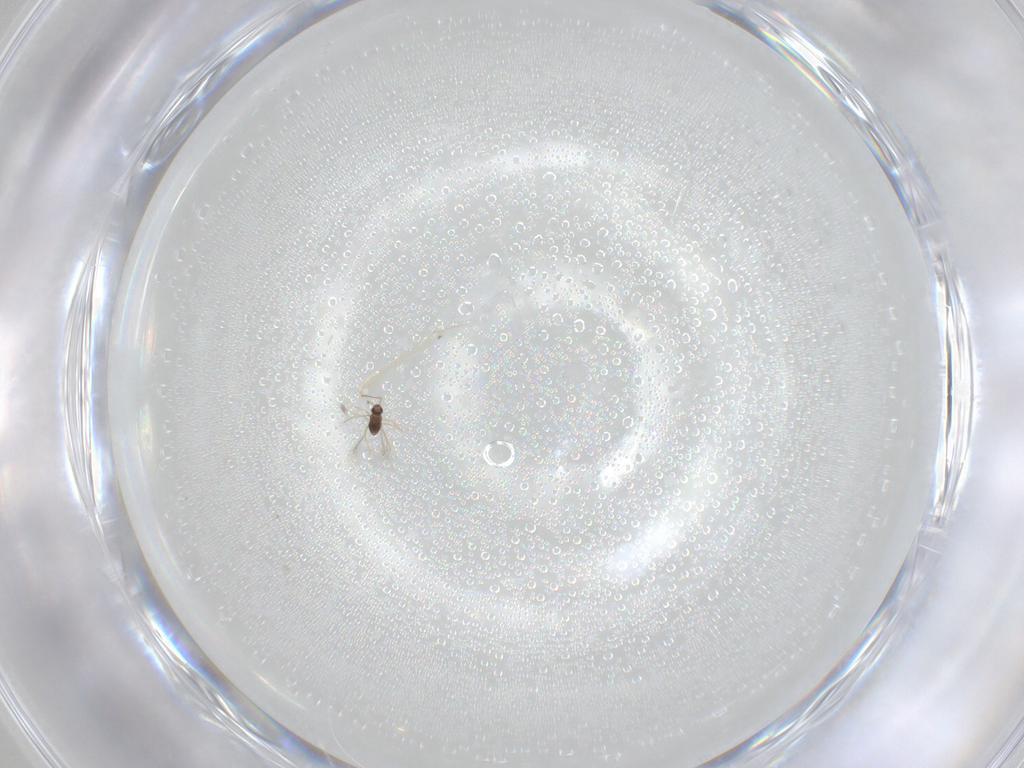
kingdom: Animalia
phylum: Arthropoda
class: Insecta
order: Hymenoptera
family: Mymaridae
